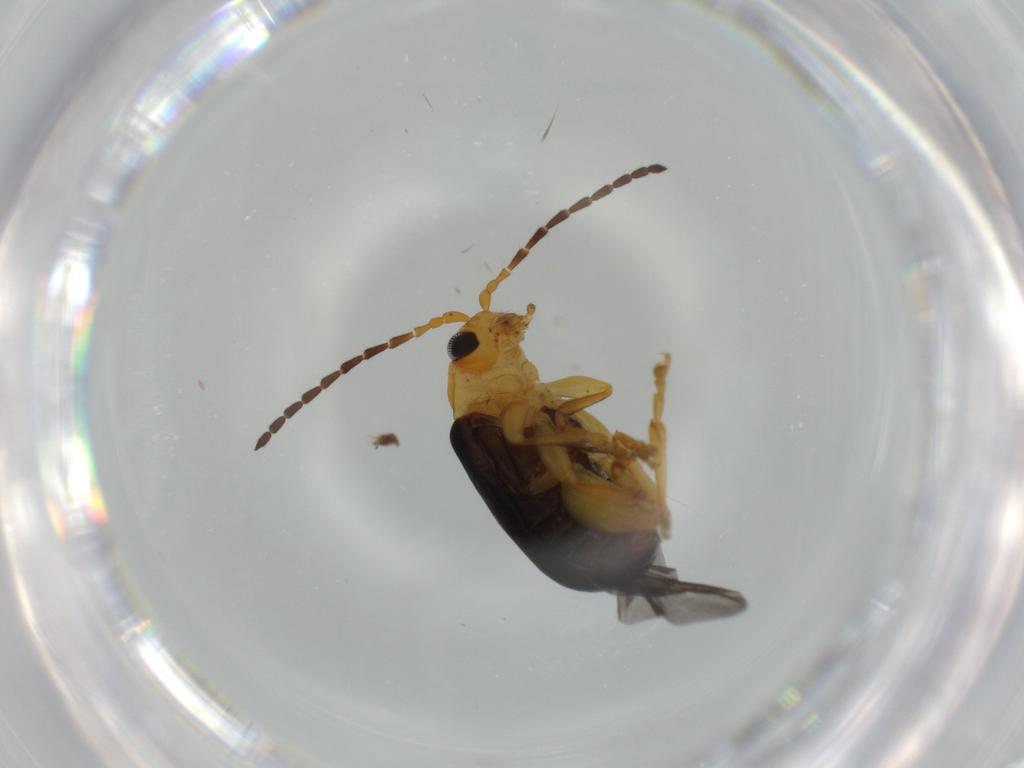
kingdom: Animalia
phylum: Arthropoda
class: Insecta
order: Coleoptera
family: Chrysomelidae
